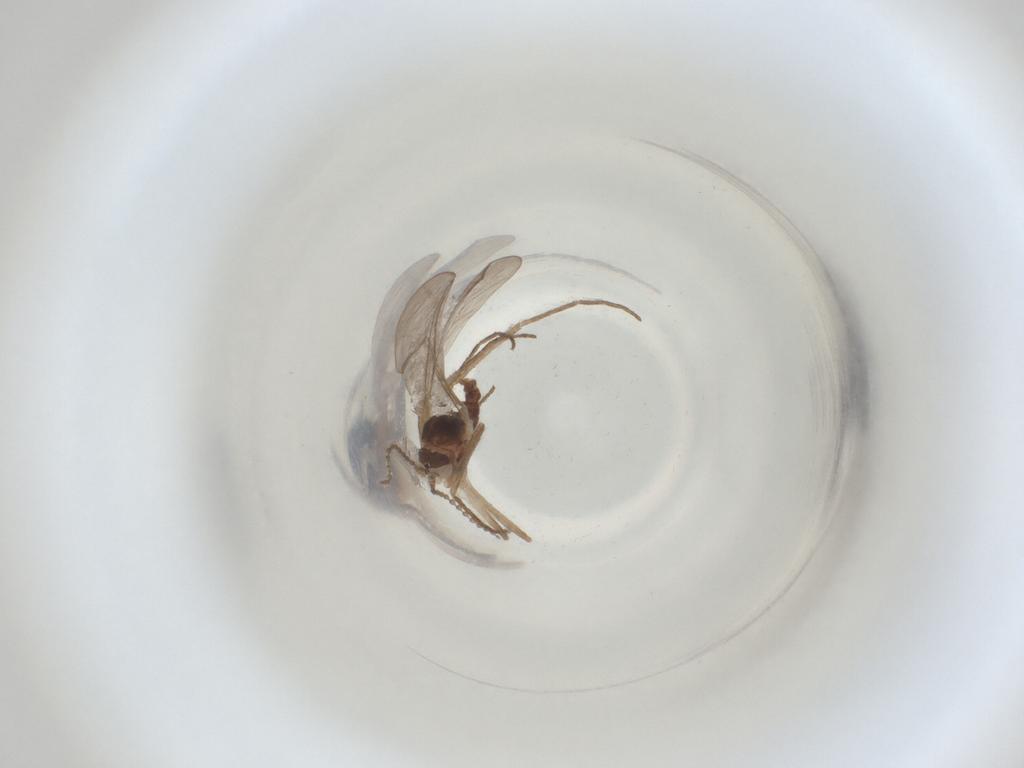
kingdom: Animalia
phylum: Arthropoda
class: Insecta
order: Diptera
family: Cecidomyiidae
